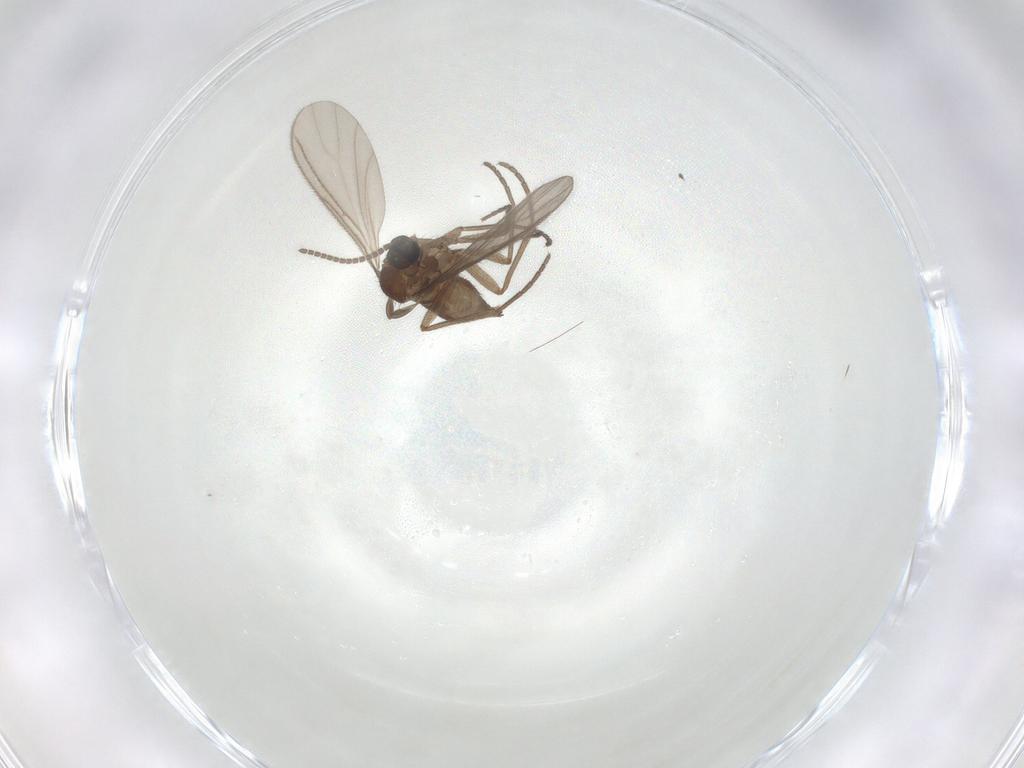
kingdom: Animalia
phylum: Arthropoda
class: Insecta
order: Diptera
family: Sciaridae
